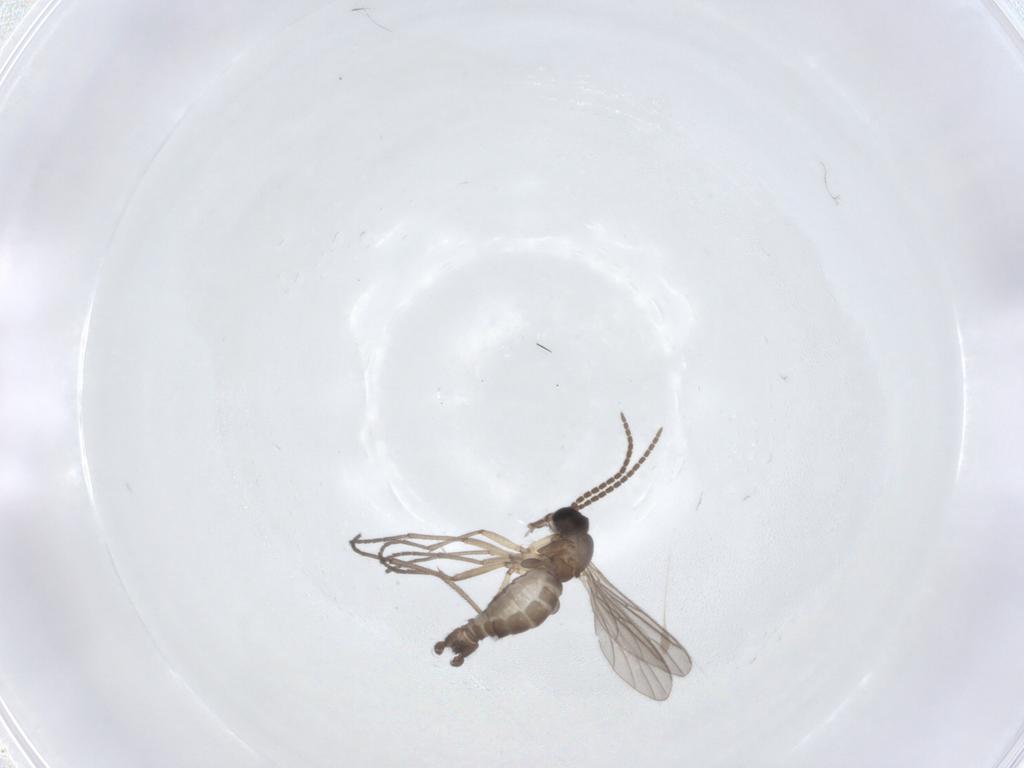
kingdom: Animalia
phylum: Arthropoda
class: Insecta
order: Diptera
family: Sciaridae
